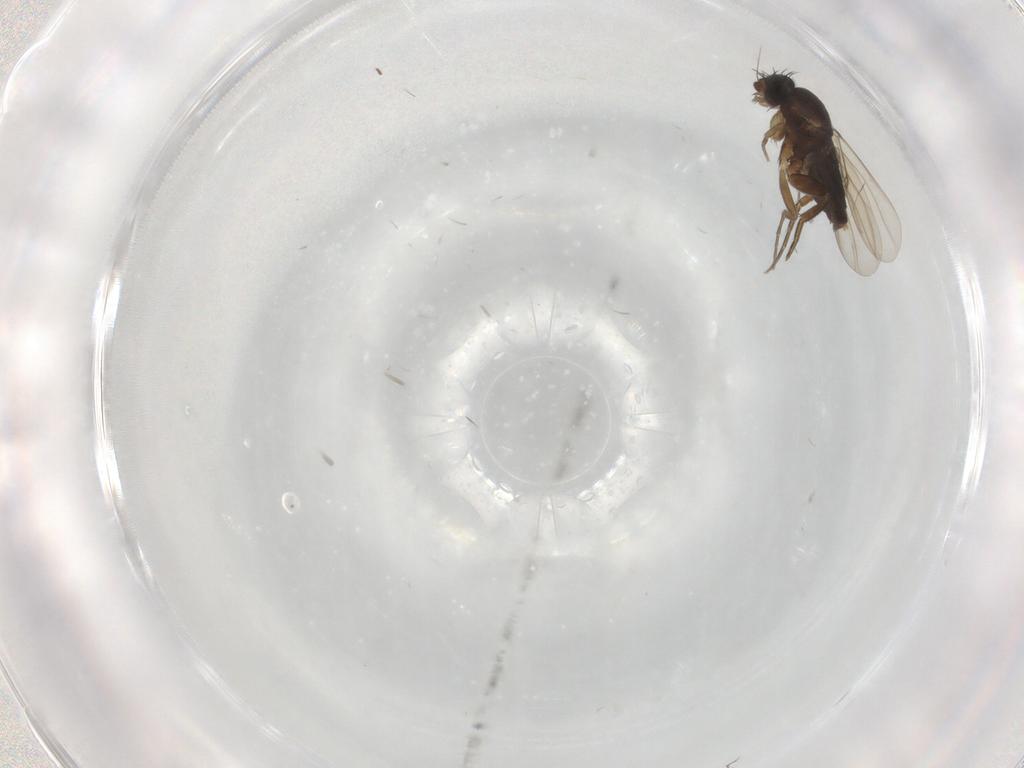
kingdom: Animalia
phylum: Arthropoda
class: Insecta
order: Diptera
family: Phoridae
